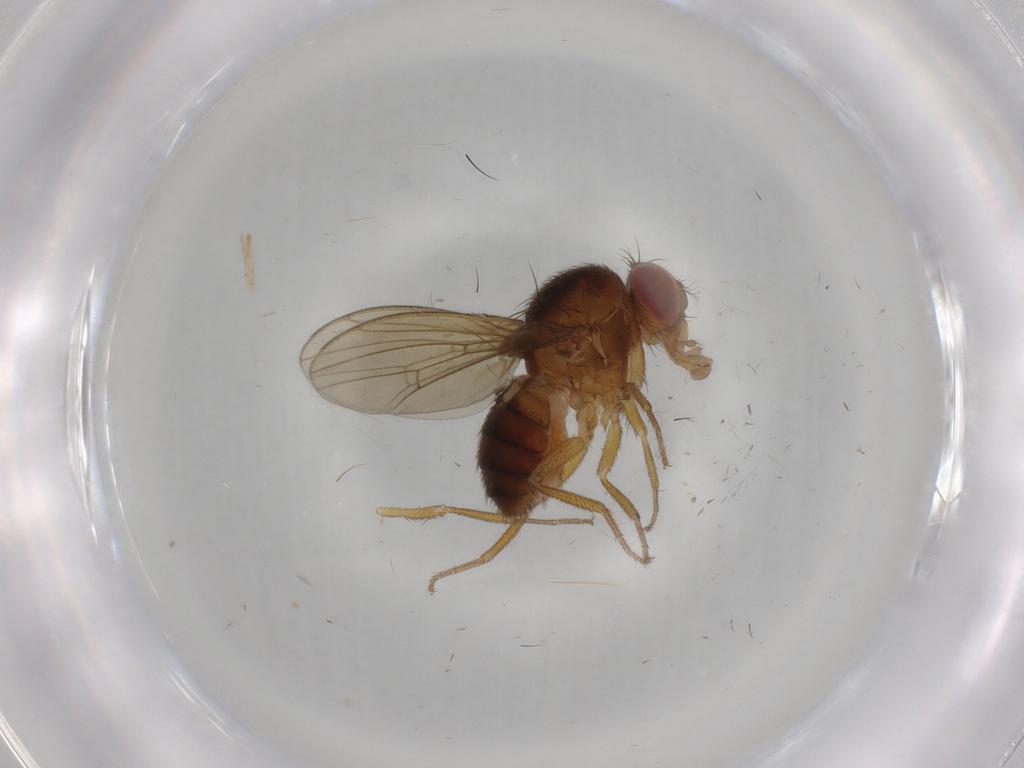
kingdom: Animalia
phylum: Arthropoda
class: Insecta
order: Diptera
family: Drosophilidae
